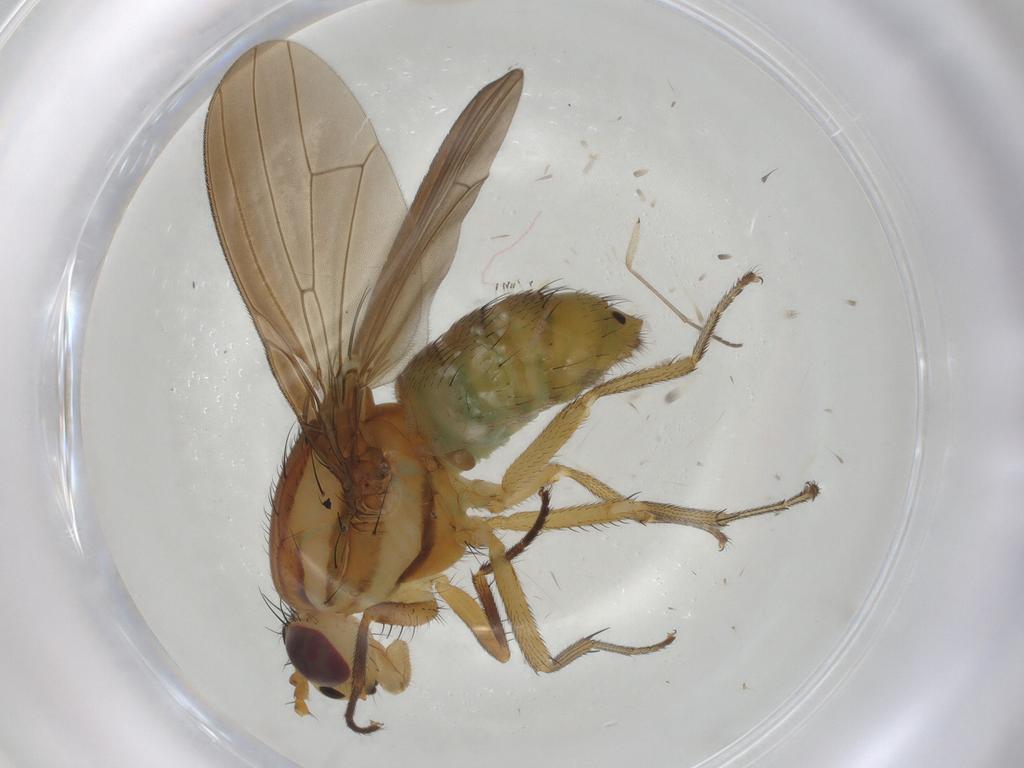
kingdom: Animalia
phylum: Arthropoda
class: Insecta
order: Diptera
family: Lauxaniidae
